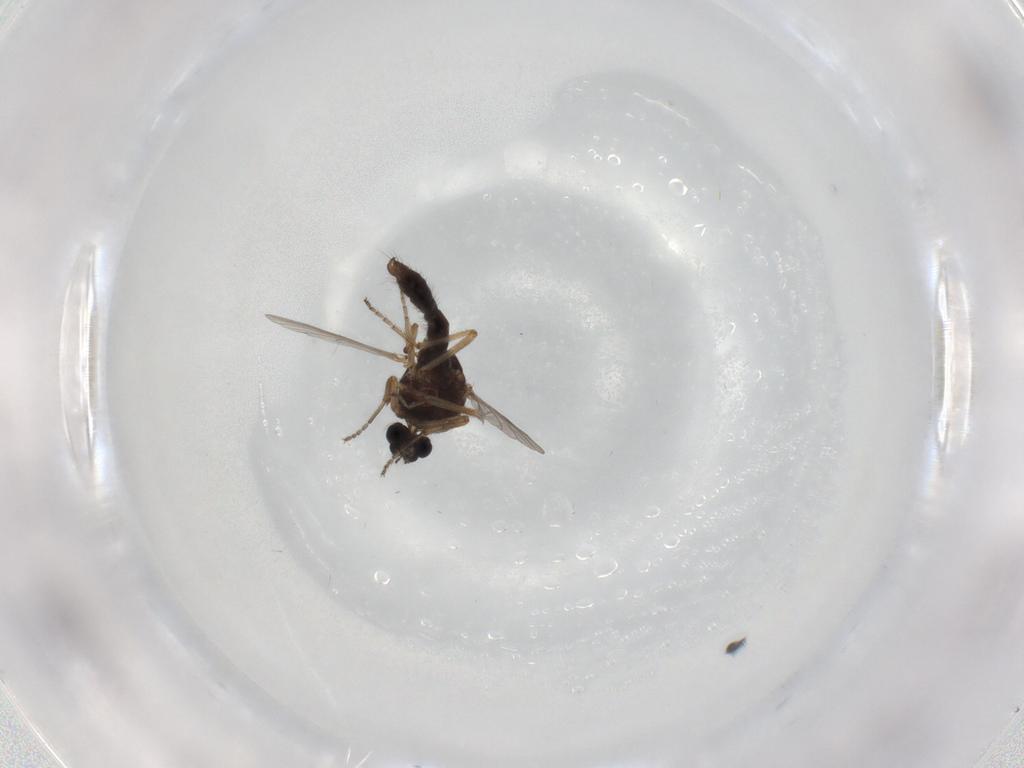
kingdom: Animalia
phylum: Arthropoda
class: Insecta
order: Diptera
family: Ceratopogonidae
